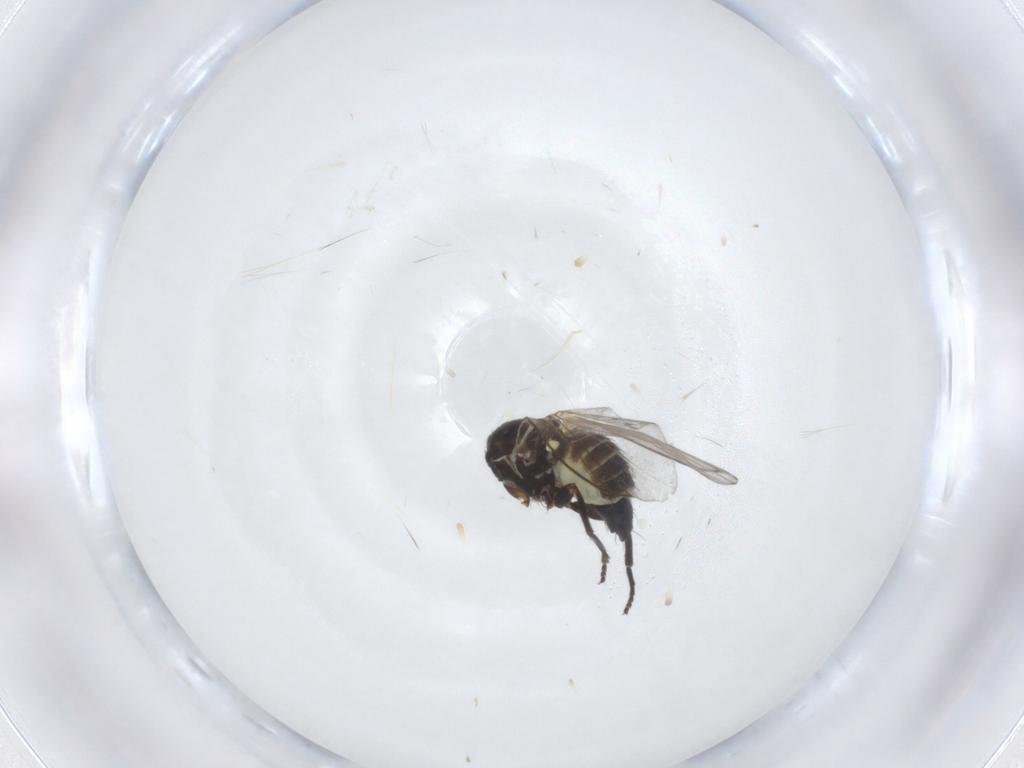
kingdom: Animalia
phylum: Arthropoda
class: Insecta
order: Diptera
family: Agromyzidae
